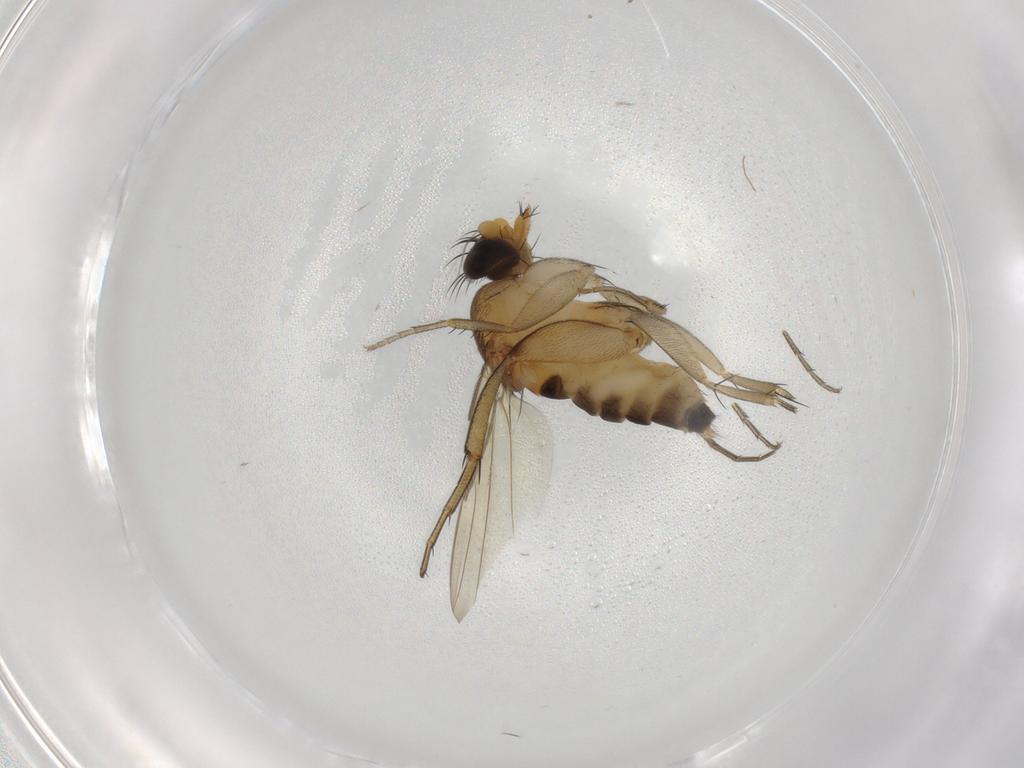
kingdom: Animalia
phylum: Arthropoda
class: Insecta
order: Diptera
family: Phoridae
